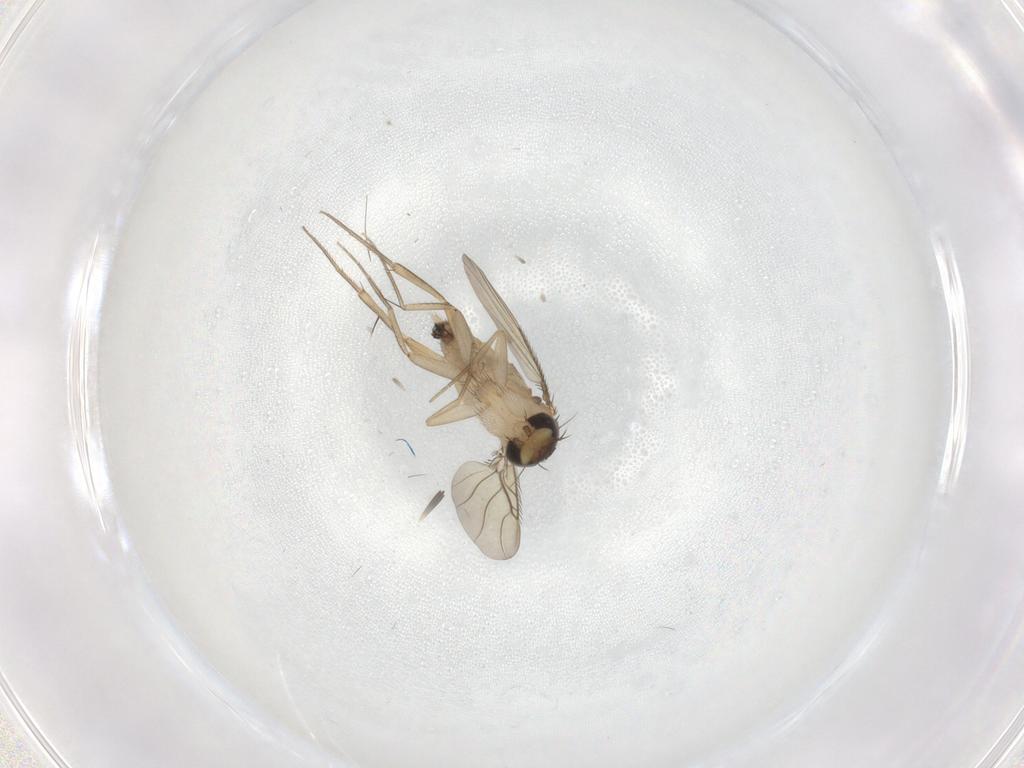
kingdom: Animalia
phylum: Arthropoda
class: Insecta
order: Diptera
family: Phoridae
